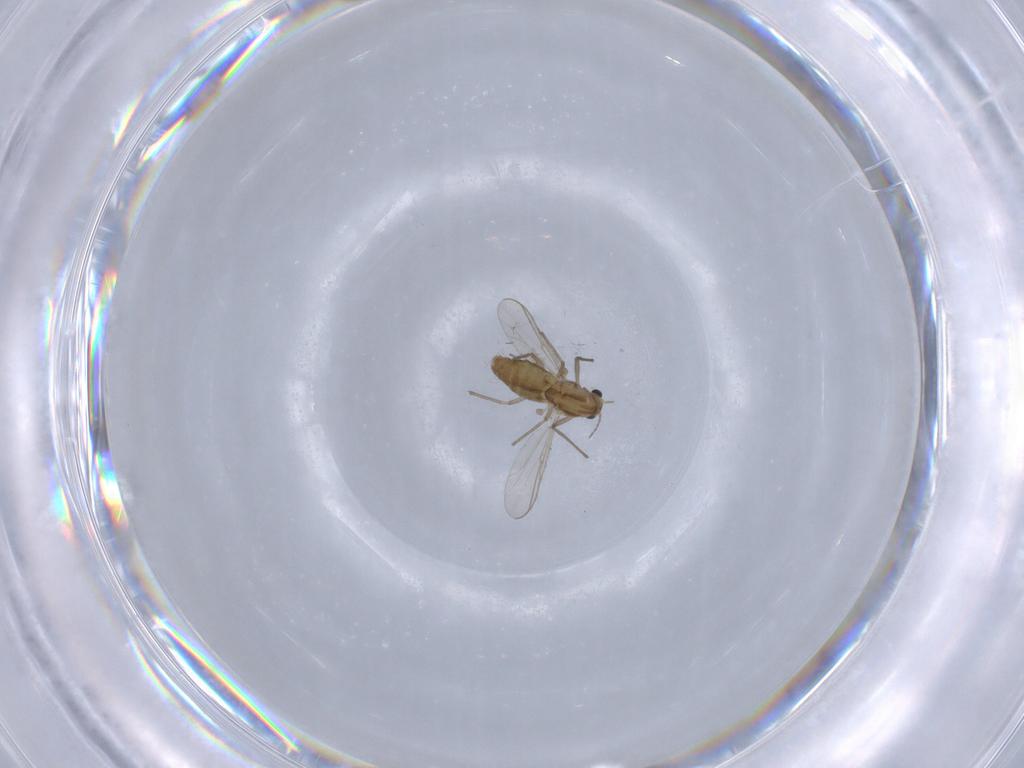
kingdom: Animalia
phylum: Arthropoda
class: Insecta
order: Diptera
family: Chironomidae
